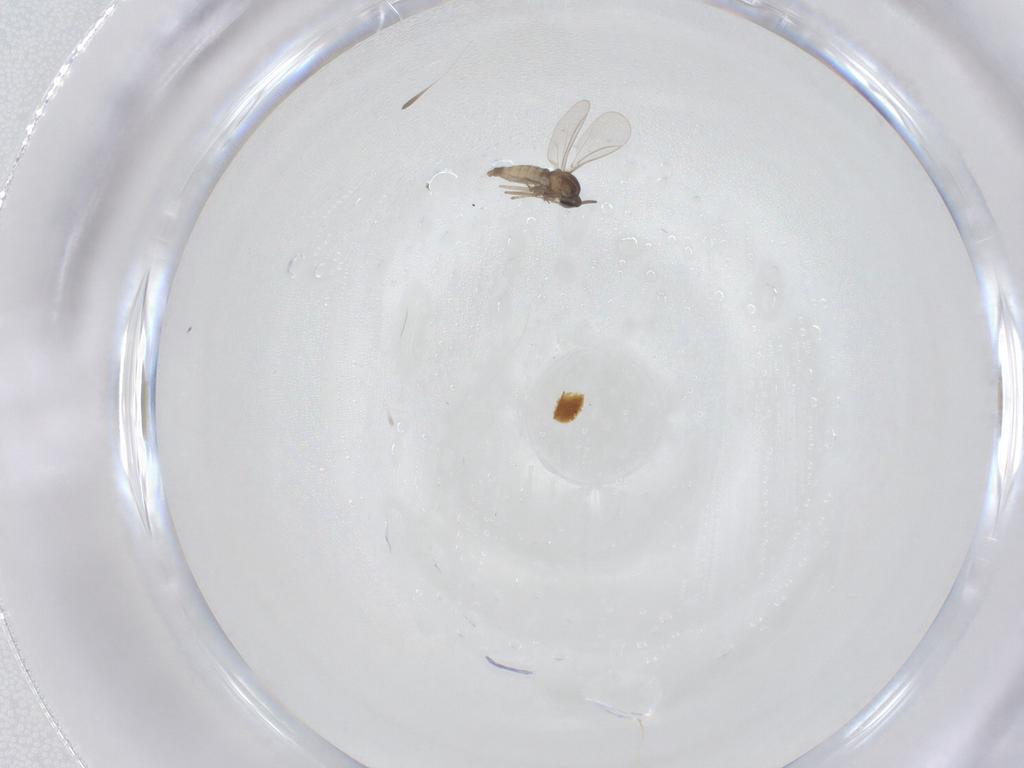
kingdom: Animalia
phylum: Arthropoda
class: Insecta
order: Diptera
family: Cecidomyiidae
